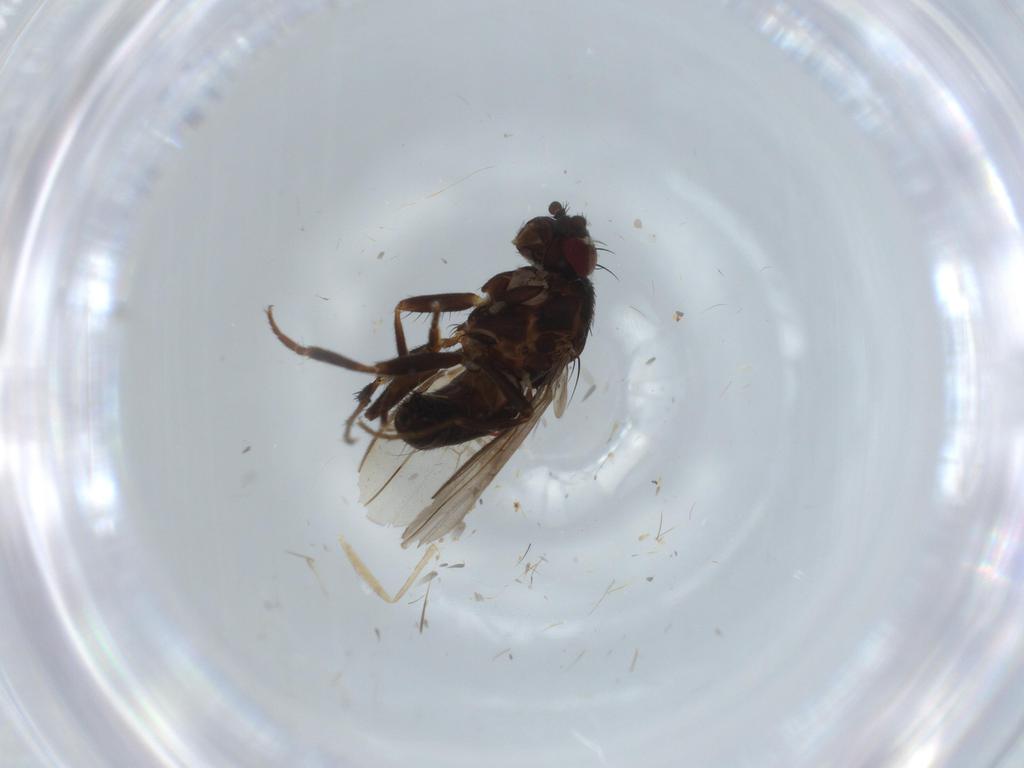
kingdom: Animalia
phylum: Arthropoda
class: Insecta
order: Diptera
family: Sphaeroceridae
